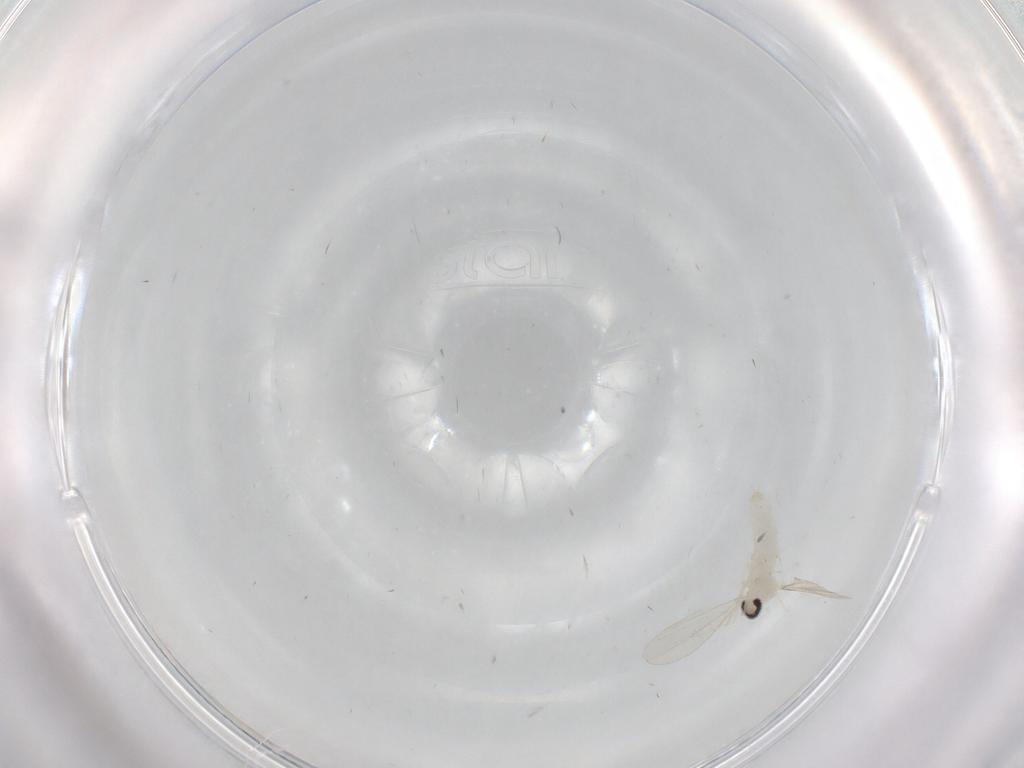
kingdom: Animalia
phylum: Arthropoda
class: Insecta
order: Diptera
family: Cecidomyiidae
